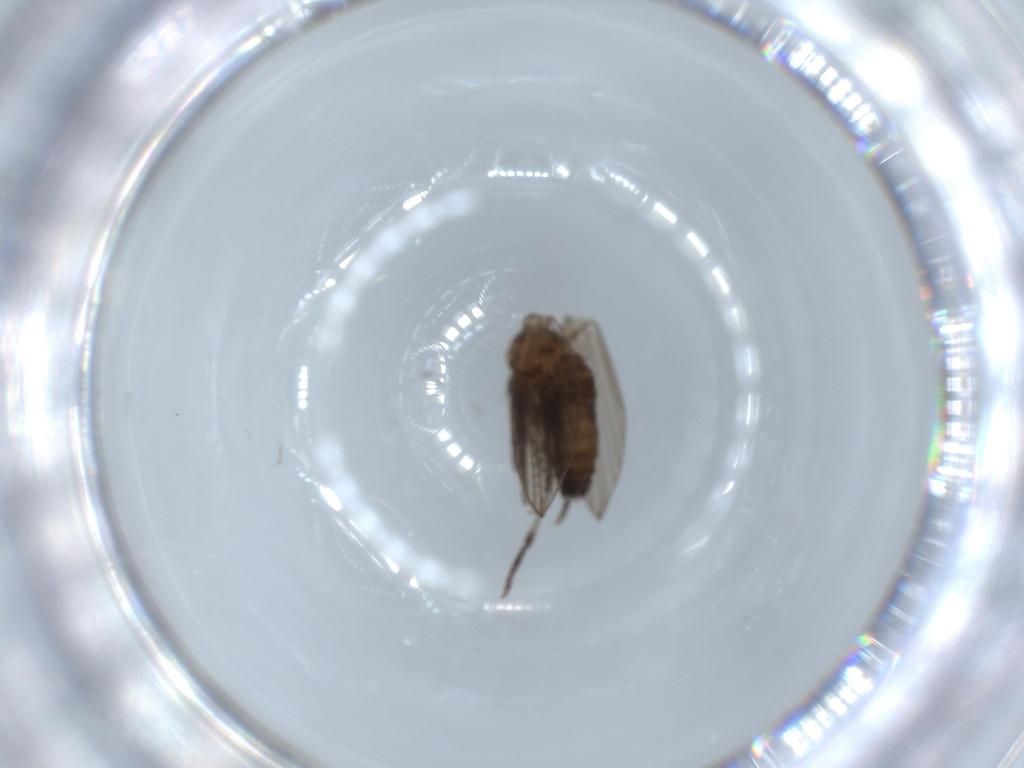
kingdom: Animalia
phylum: Arthropoda
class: Insecta
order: Diptera
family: Psychodidae
